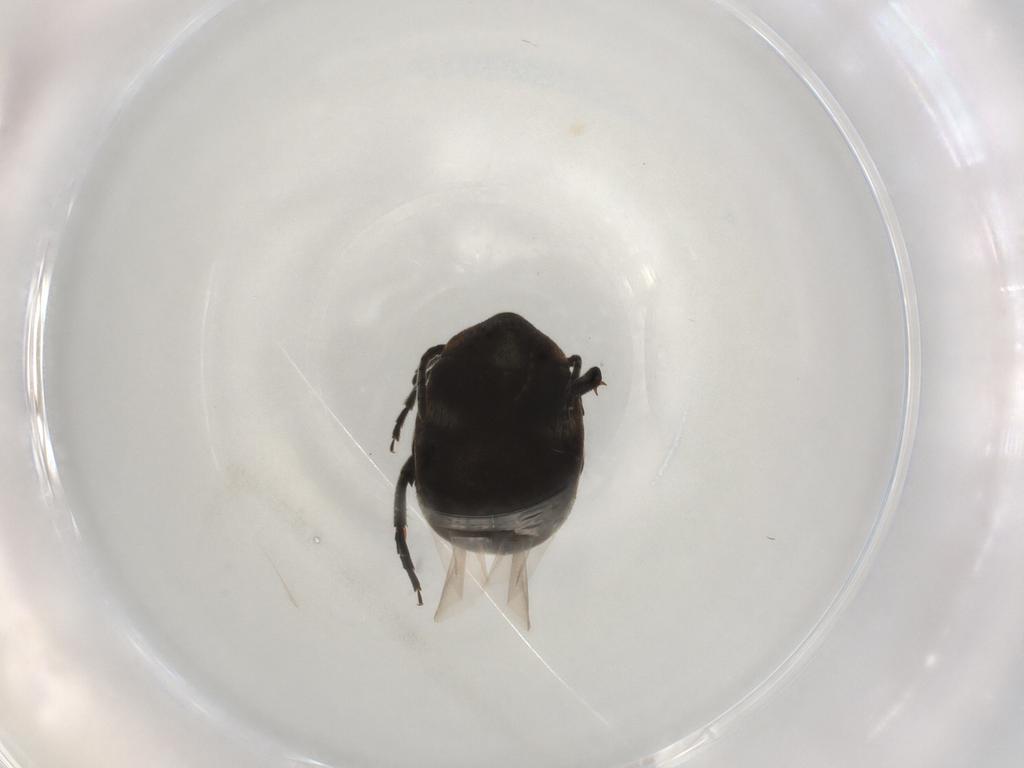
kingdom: Animalia
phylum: Arthropoda
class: Insecta
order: Coleoptera
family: Chrysomelidae
